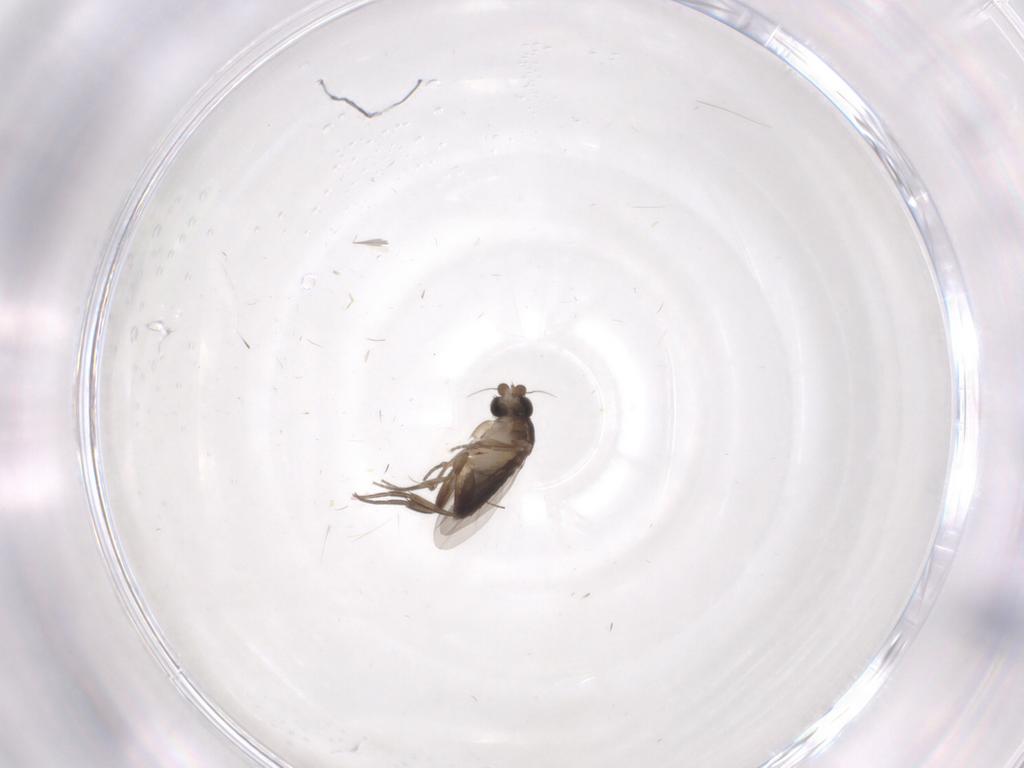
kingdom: Animalia
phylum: Arthropoda
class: Insecta
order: Diptera
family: Phoridae
